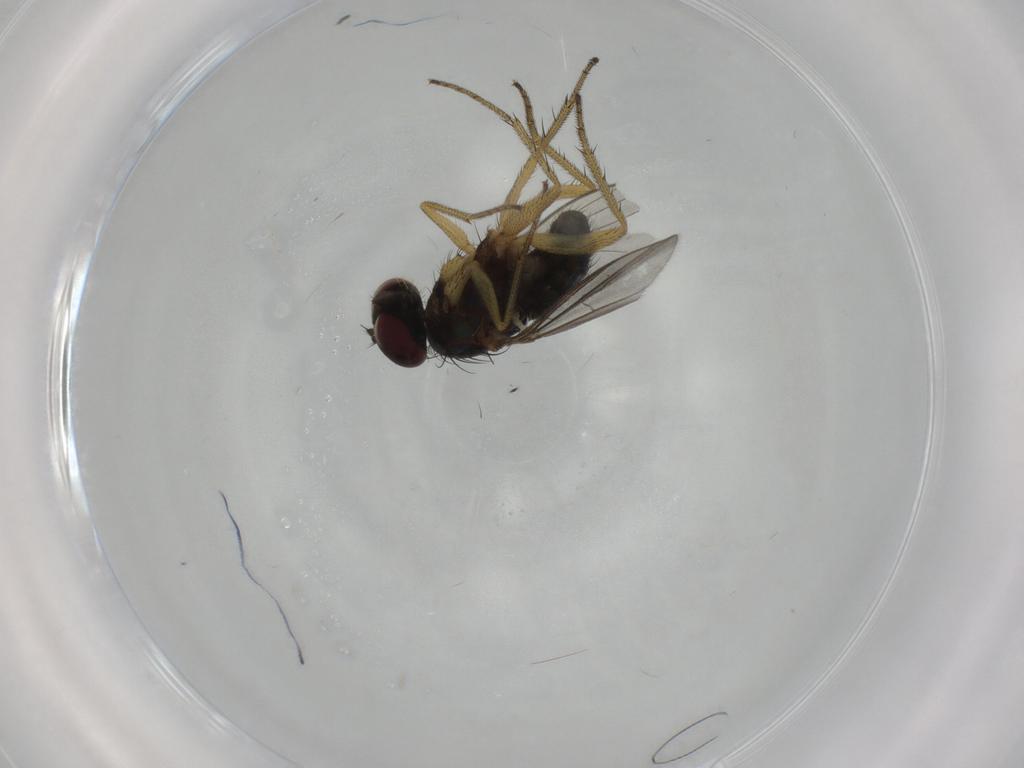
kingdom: Animalia
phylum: Arthropoda
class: Insecta
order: Diptera
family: Dolichopodidae
